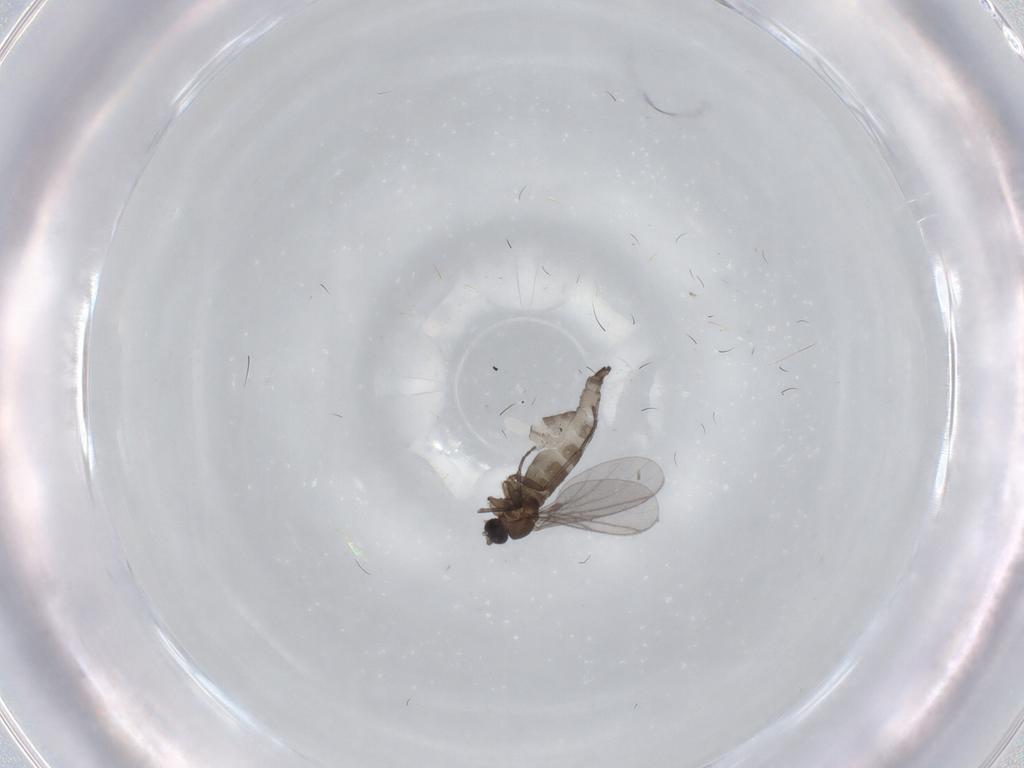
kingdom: Animalia
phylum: Arthropoda
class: Insecta
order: Diptera
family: Sciaridae
